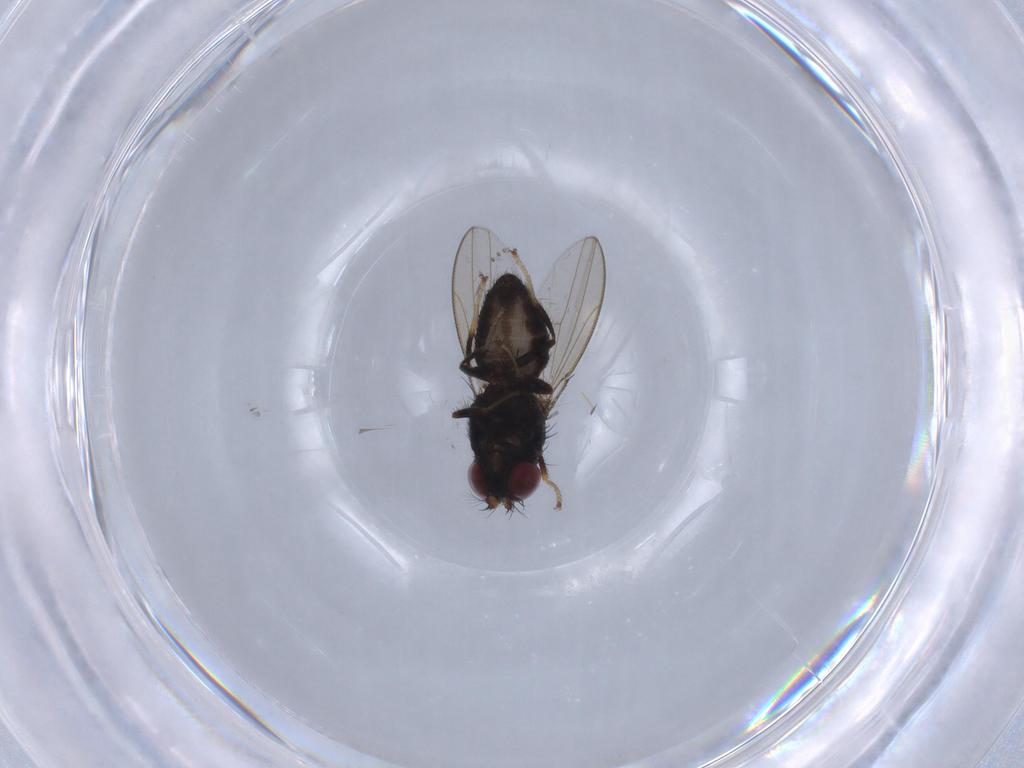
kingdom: Animalia
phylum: Arthropoda
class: Insecta
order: Diptera
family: Ephydridae
